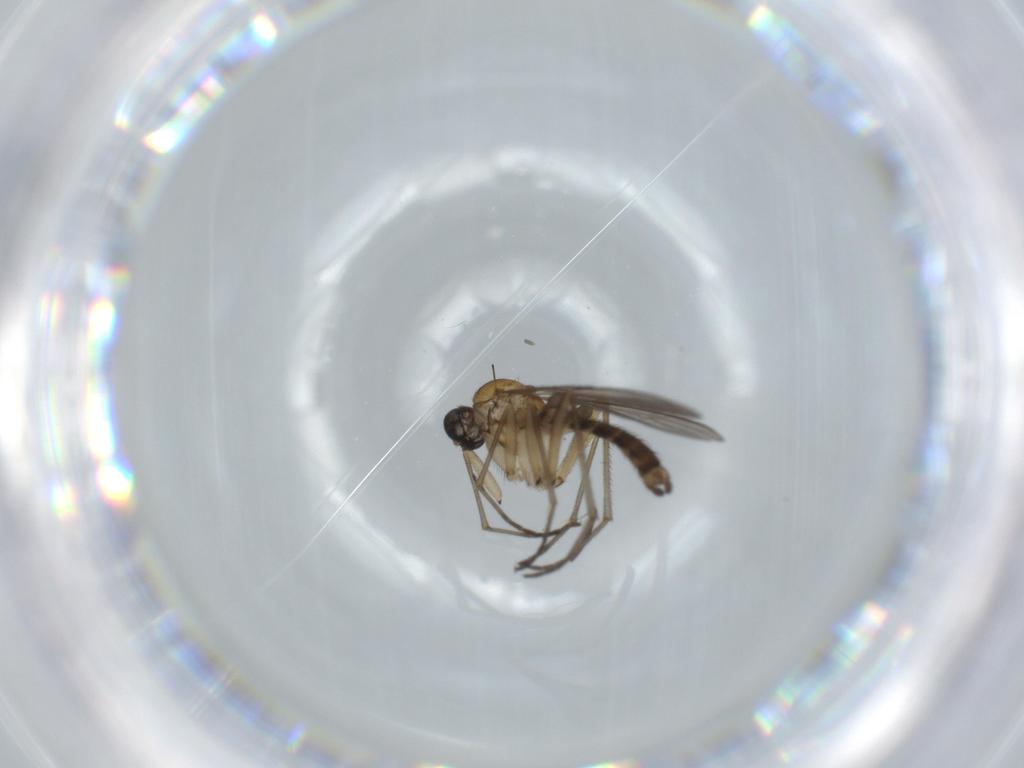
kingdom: Animalia
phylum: Arthropoda
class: Insecta
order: Diptera
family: Sciaridae
